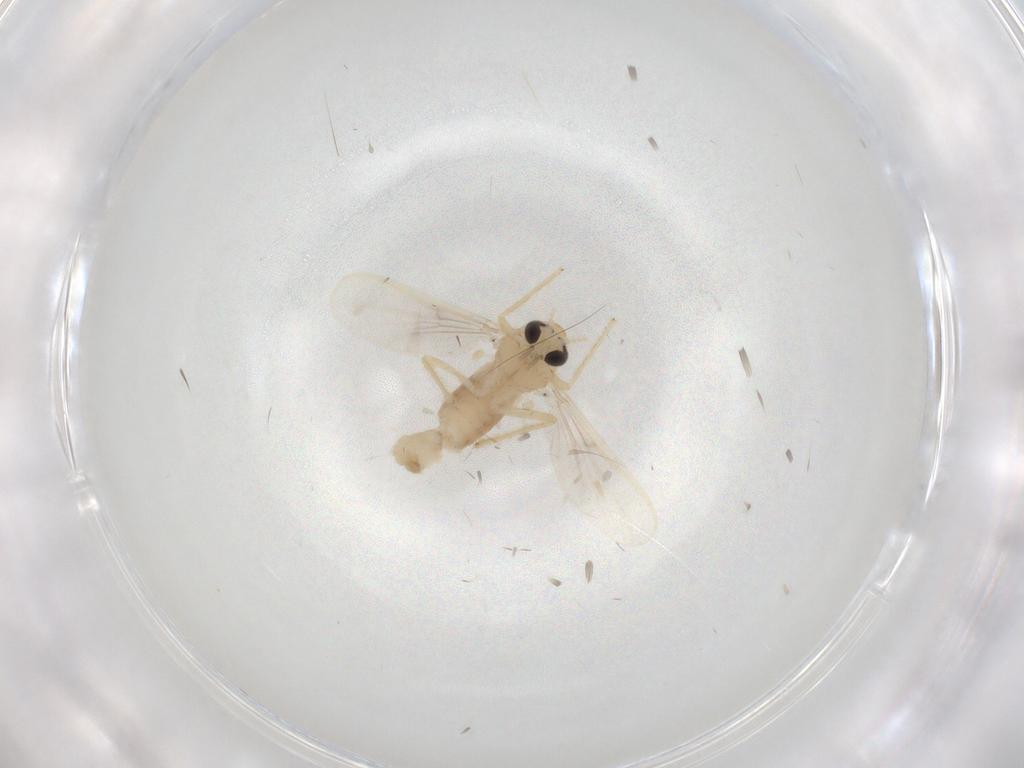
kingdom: Animalia
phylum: Arthropoda
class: Insecta
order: Diptera
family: Chironomidae
